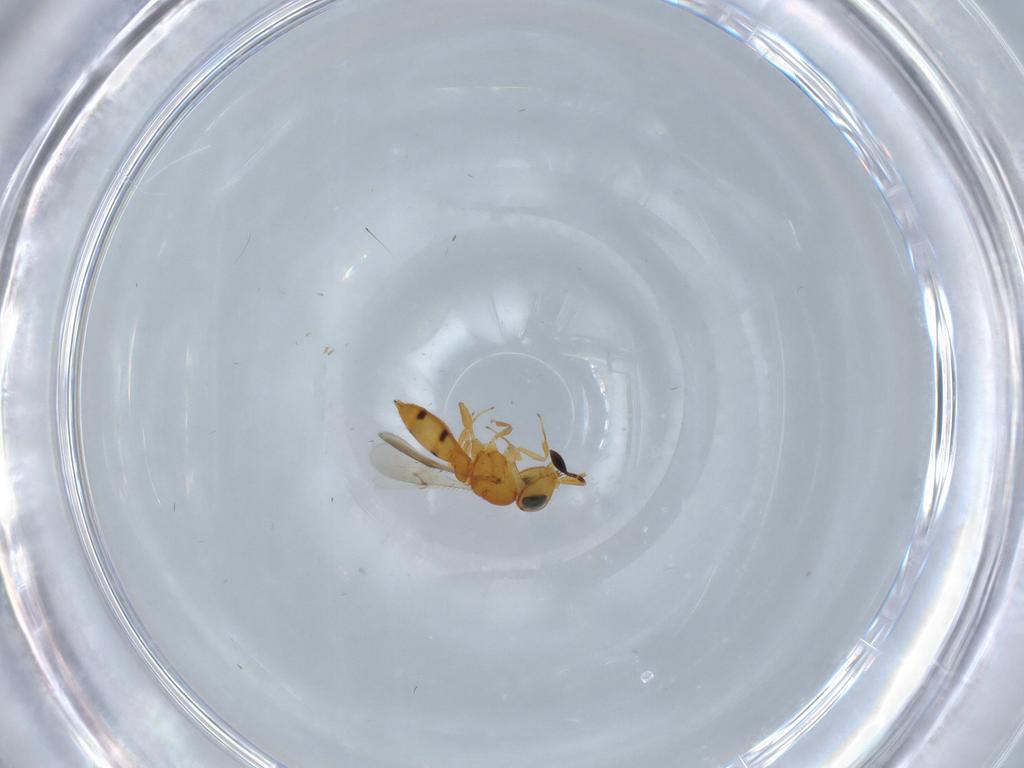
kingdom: Animalia
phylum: Arthropoda
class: Insecta
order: Hymenoptera
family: Scelionidae
